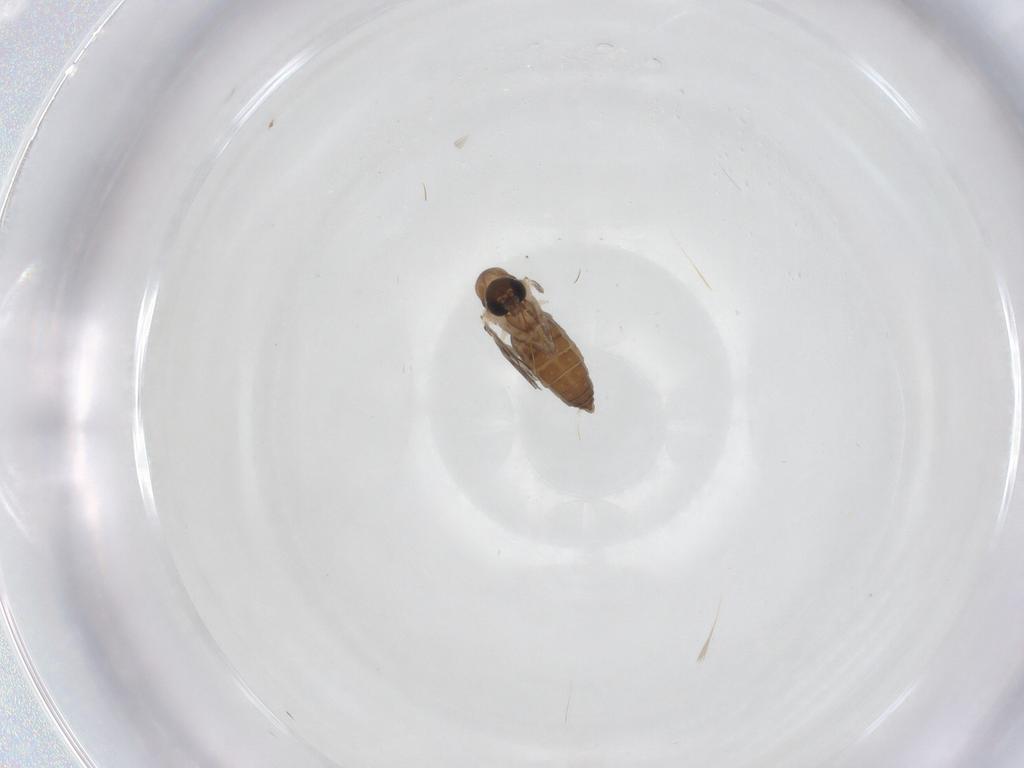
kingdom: Animalia
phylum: Arthropoda
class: Insecta
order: Diptera
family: Psychodidae
